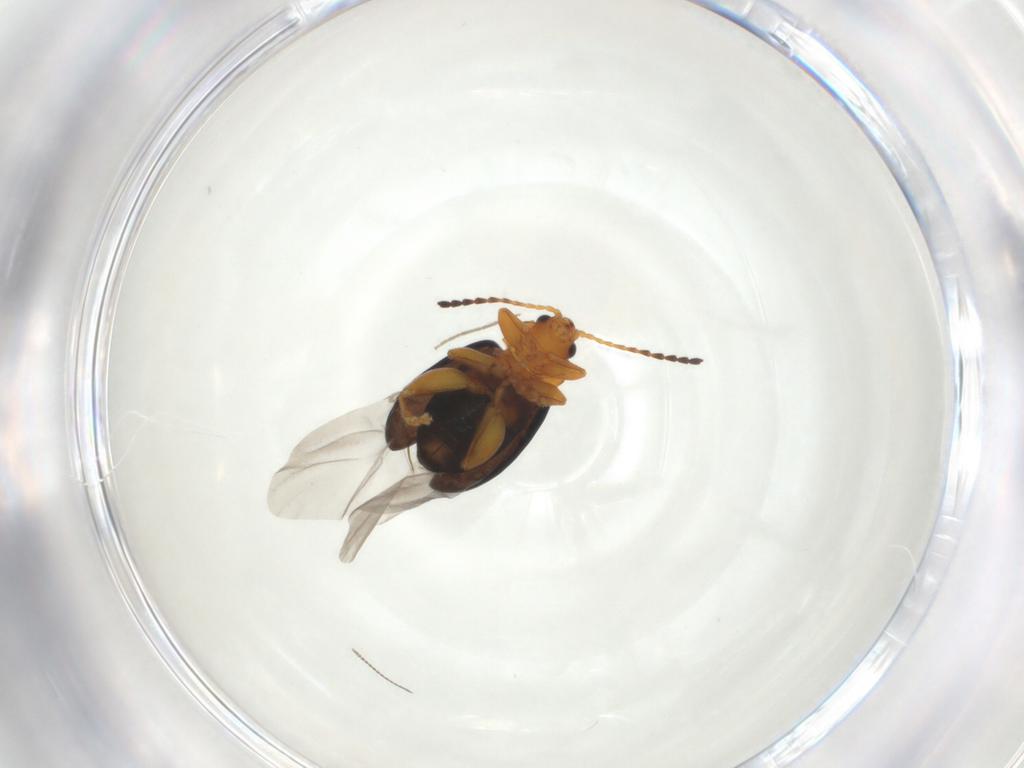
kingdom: Animalia
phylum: Arthropoda
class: Insecta
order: Coleoptera
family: Chrysomelidae
